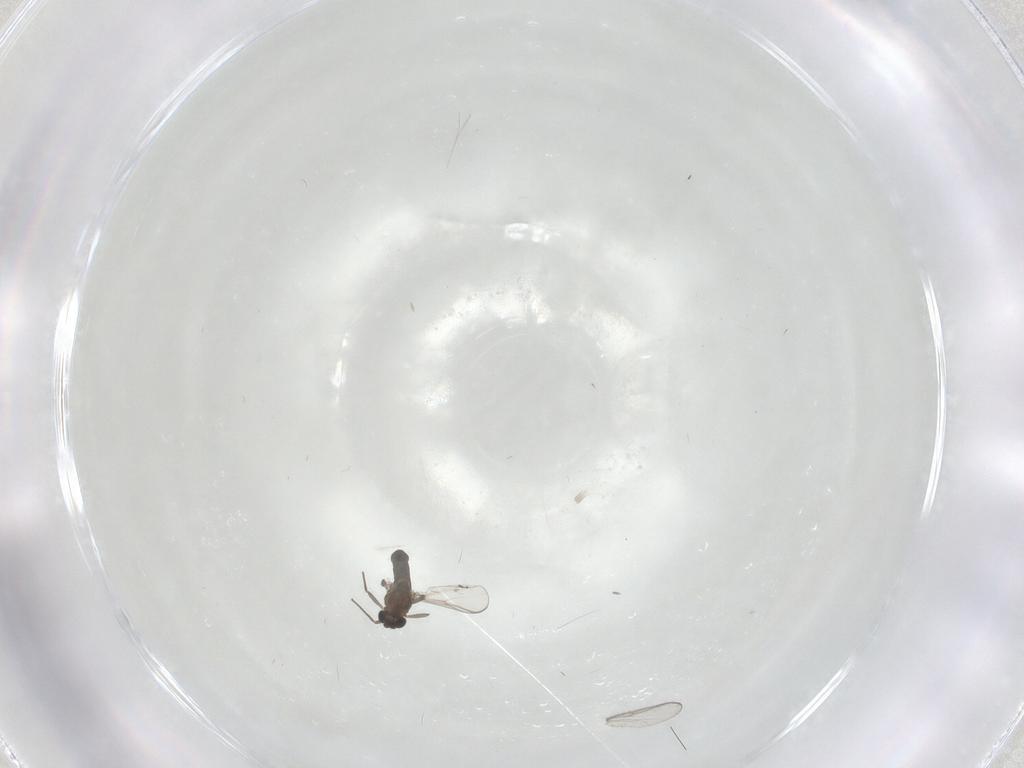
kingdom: Animalia
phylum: Arthropoda
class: Insecta
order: Diptera
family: Chironomidae
